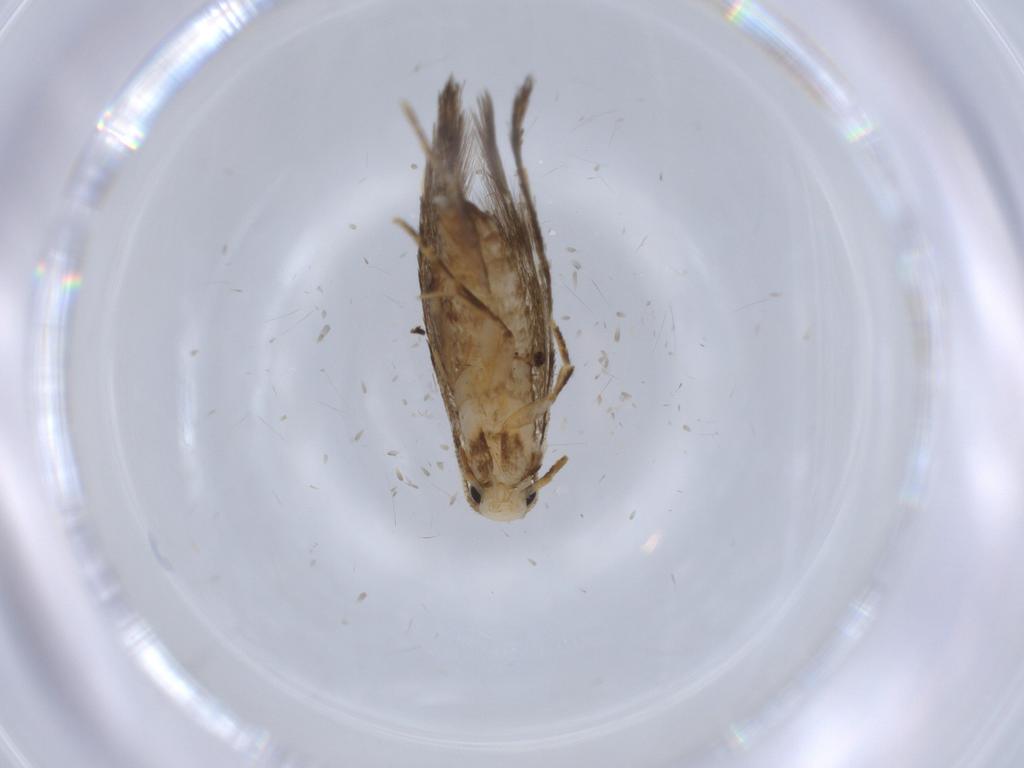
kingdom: Animalia
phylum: Arthropoda
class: Insecta
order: Lepidoptera
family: Tineidae
